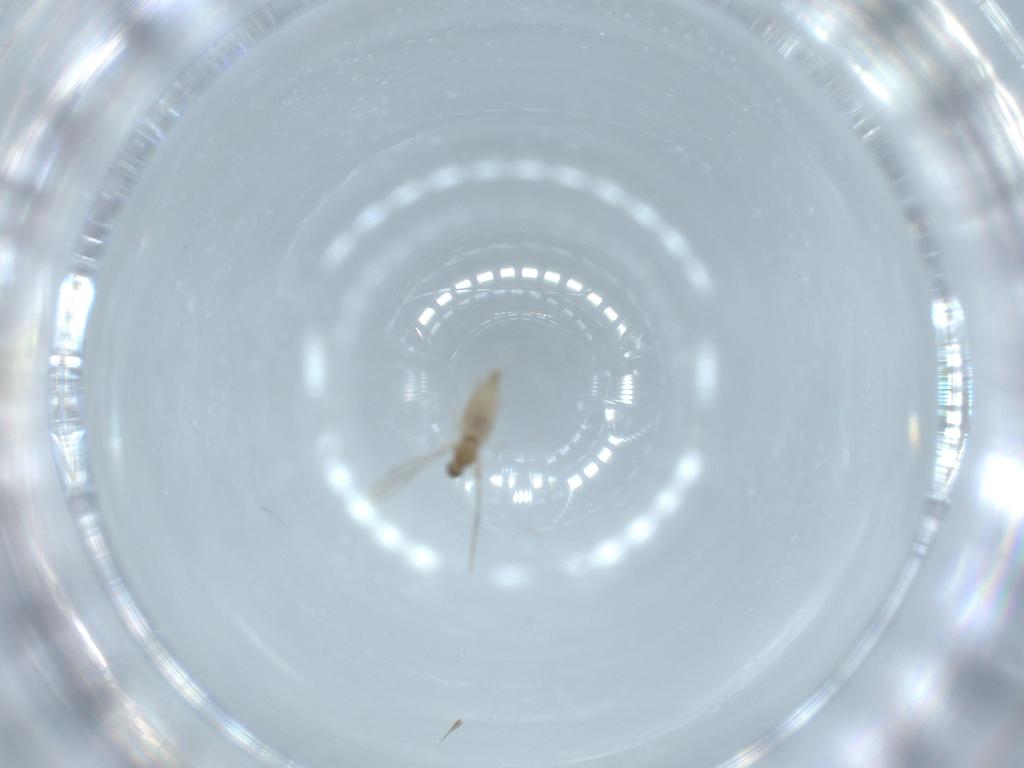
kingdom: Animalia
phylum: Arthropoda
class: Insecta
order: Diptera
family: Cecidomyiidae
